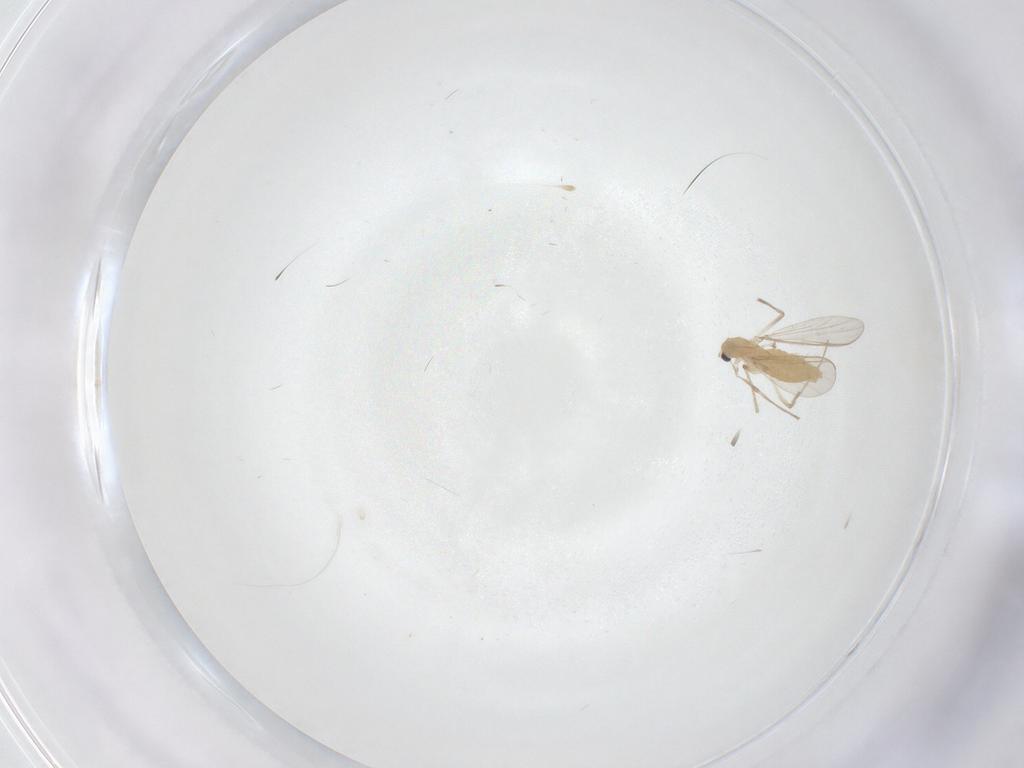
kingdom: Animalia
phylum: Arthropoda
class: Insecta
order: Diptera
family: Chironomidae
